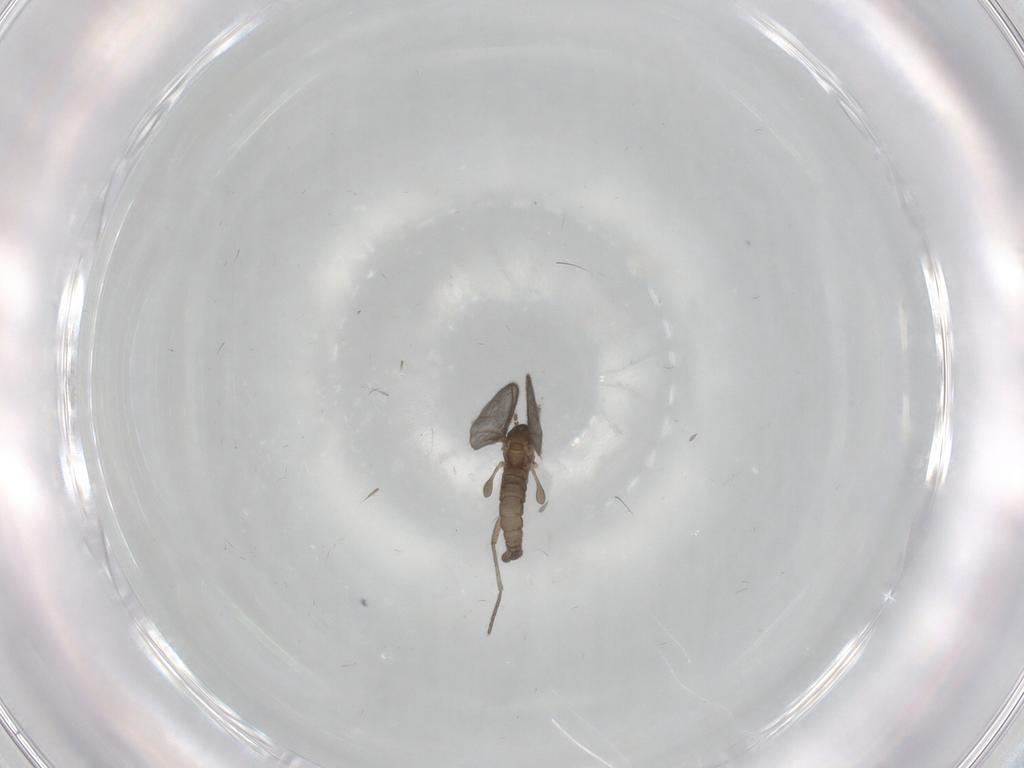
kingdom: Animalia
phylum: Arthropoda
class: Insecta
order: Diptera
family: Sciaridae
